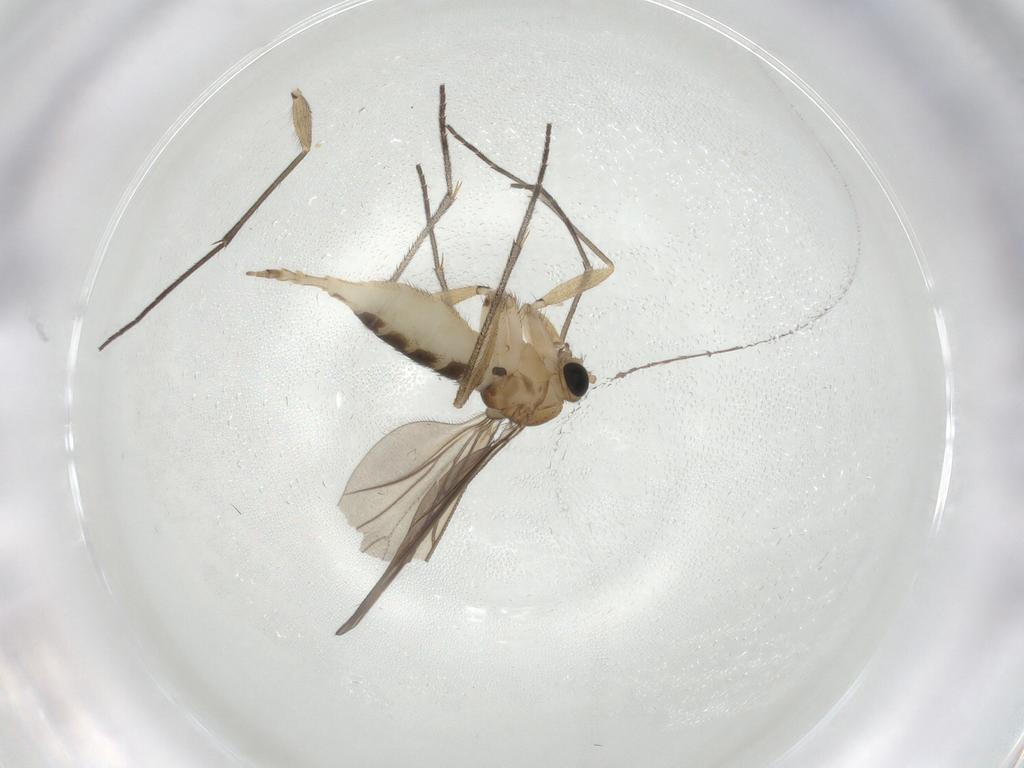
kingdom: Animalia
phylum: Arthropoda
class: Insecta
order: Diptera
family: Sciaridae
